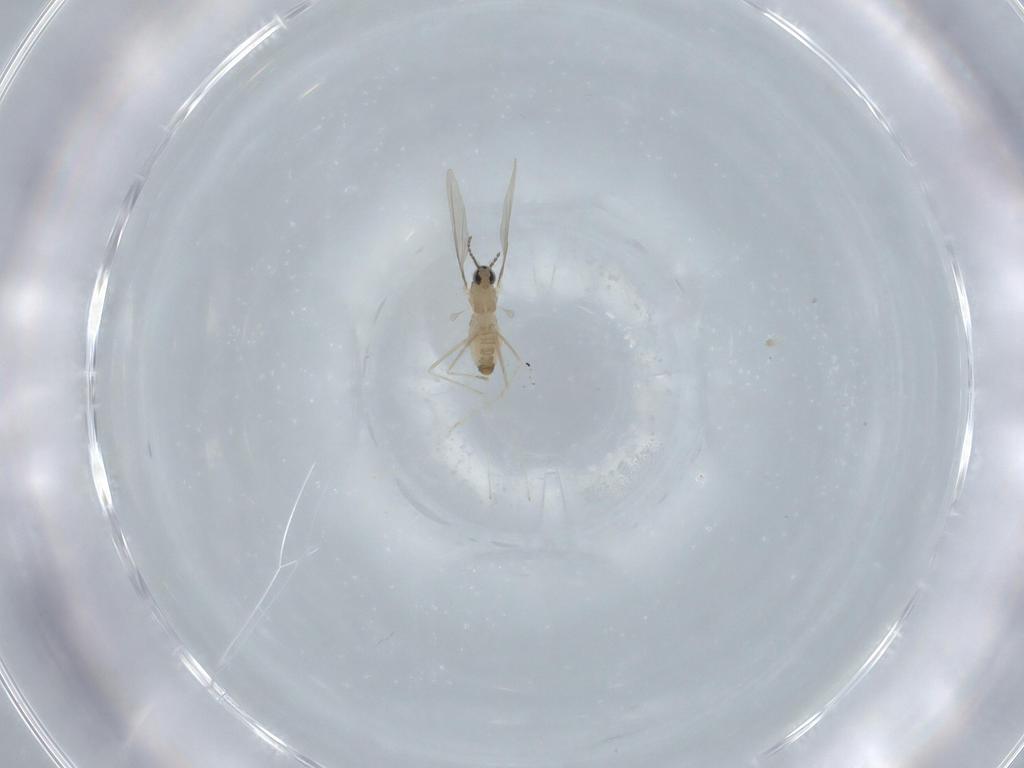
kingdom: Animalia
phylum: Arthropoda
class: Insecta
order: Diptera
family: Cecidomyiidae
